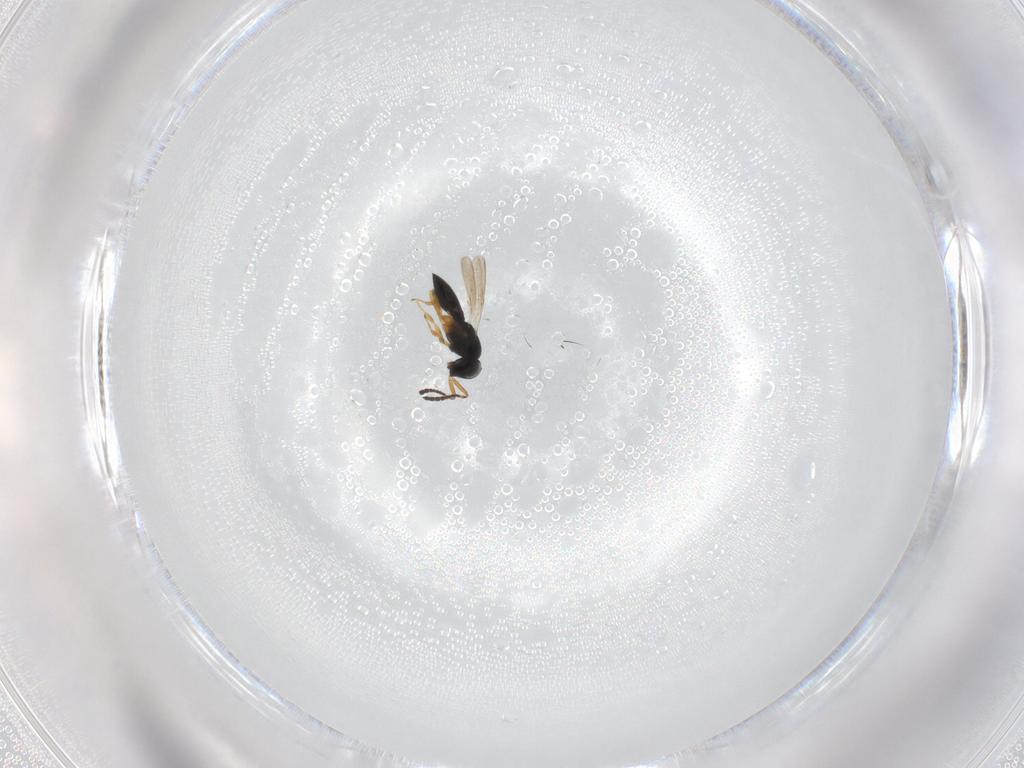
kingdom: Animalia
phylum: Arthropoda
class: Insecta
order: Hymenoptera
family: Scelionidae
